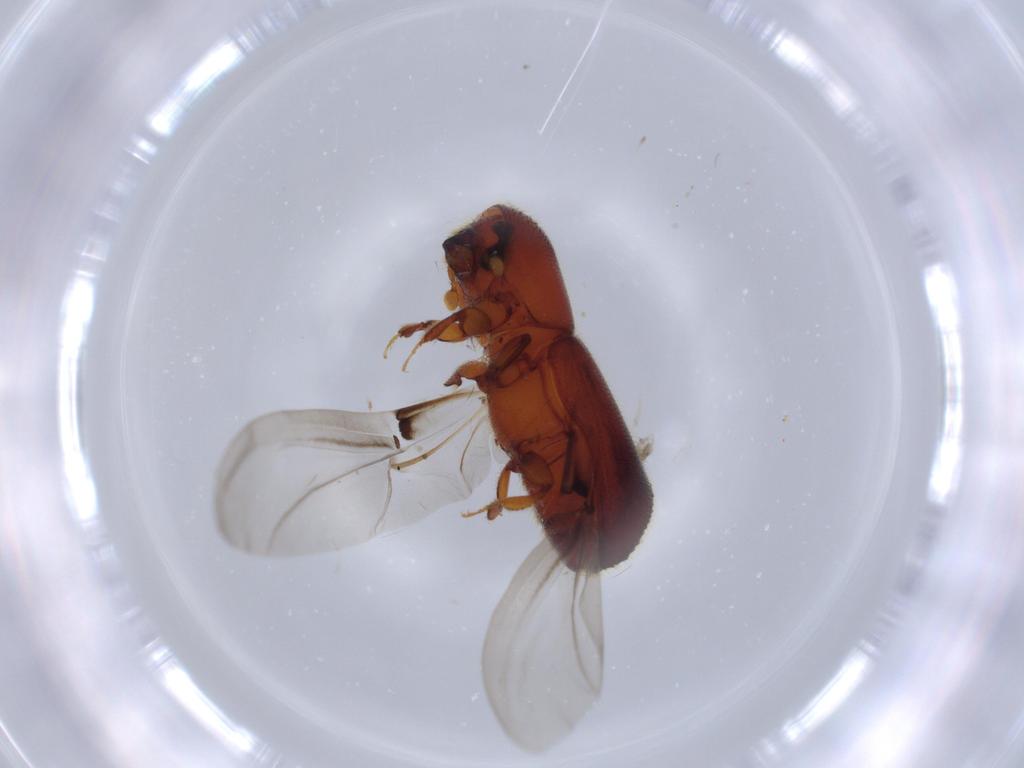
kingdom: Animalia
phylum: Arthropoda
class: Insecta
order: Coleoptera
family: Curculionidae
